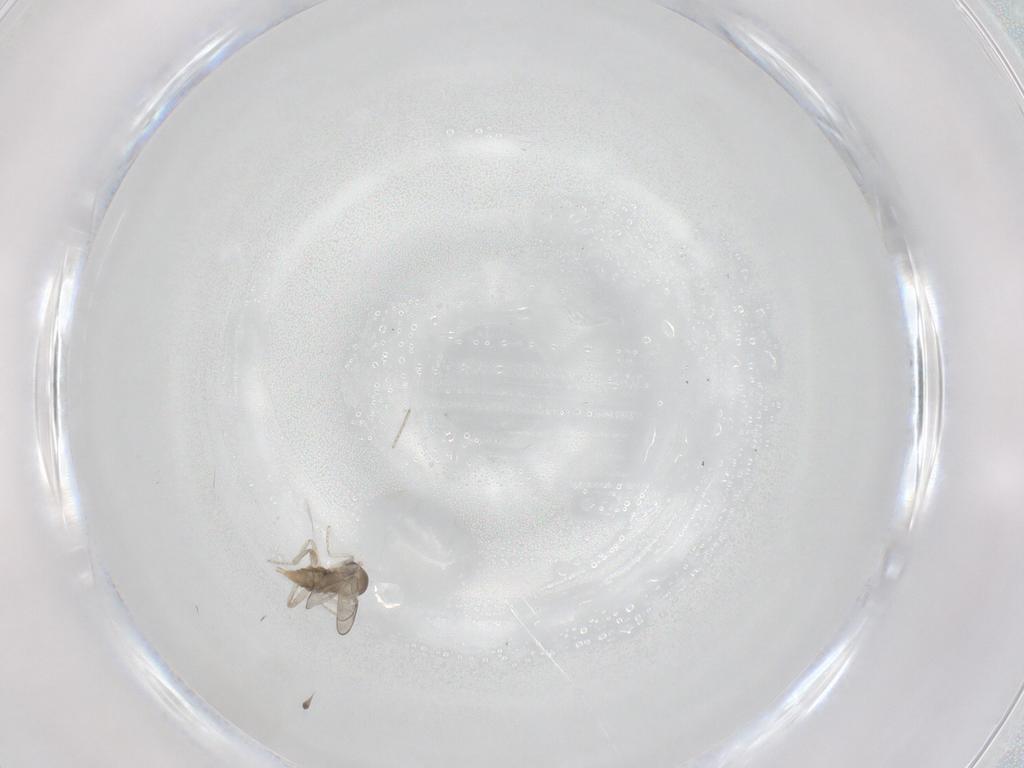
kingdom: Animalia
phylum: Arthropoda
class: Insecta
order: Diptera
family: Cecidomyiidae
